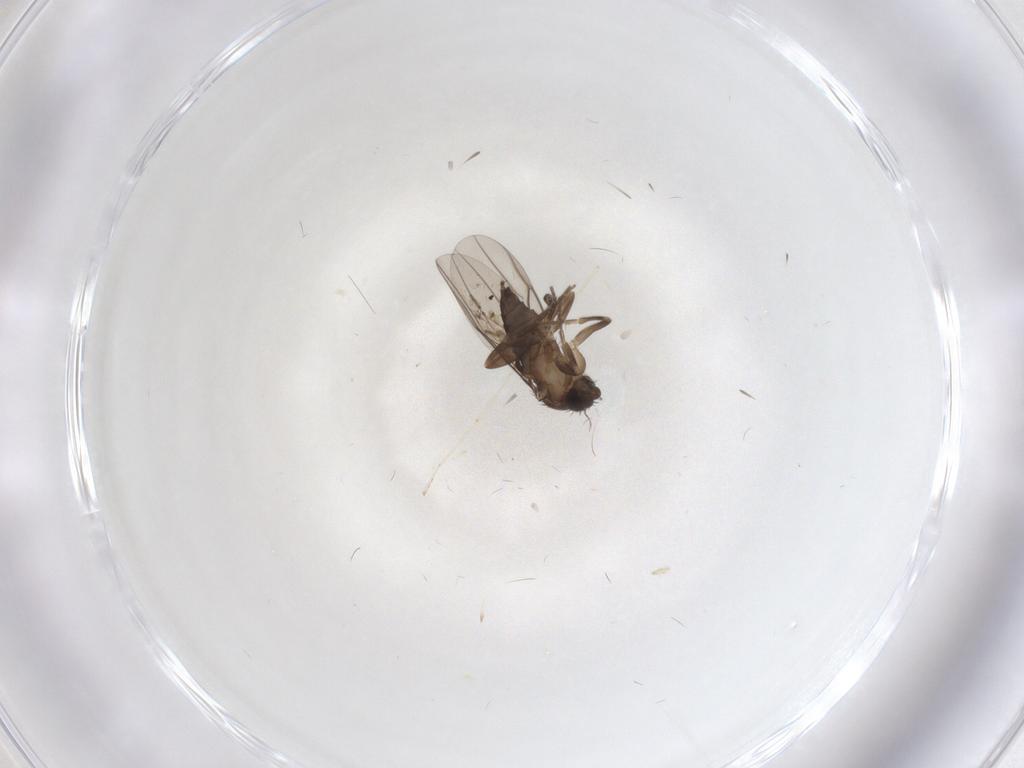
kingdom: Animalia
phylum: Arthropoda
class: Insecta
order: Diptera
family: Phoridae
